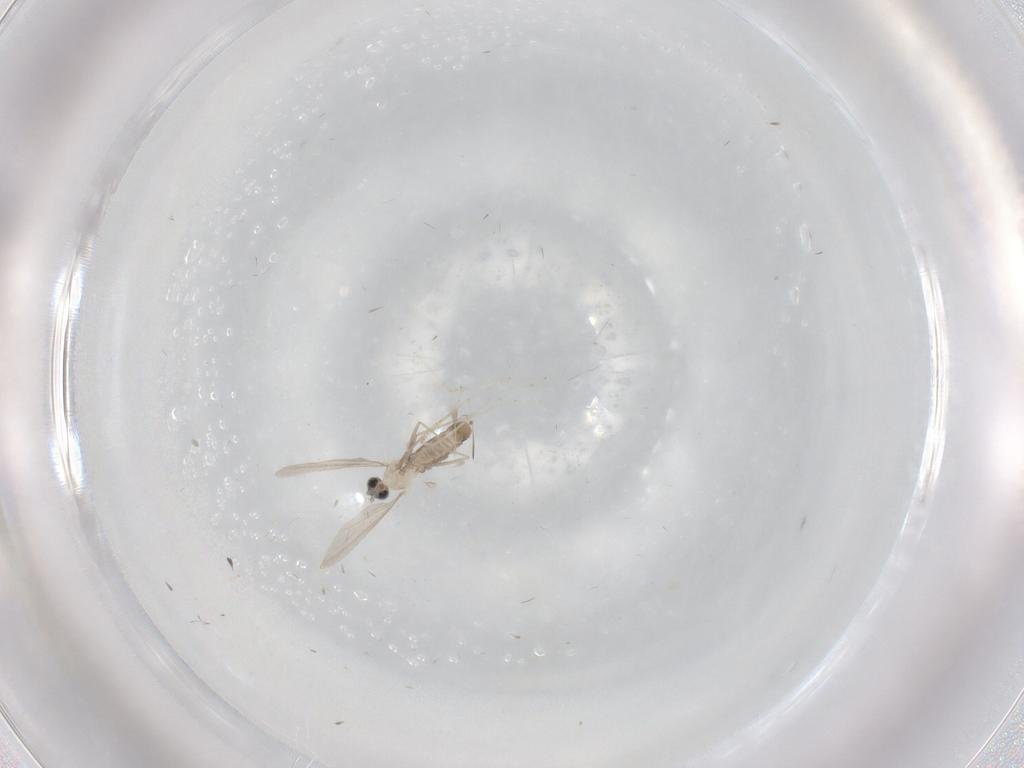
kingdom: Animalia
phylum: Arthropoda
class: Insecta
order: Diptera
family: Cecidomyiidae
